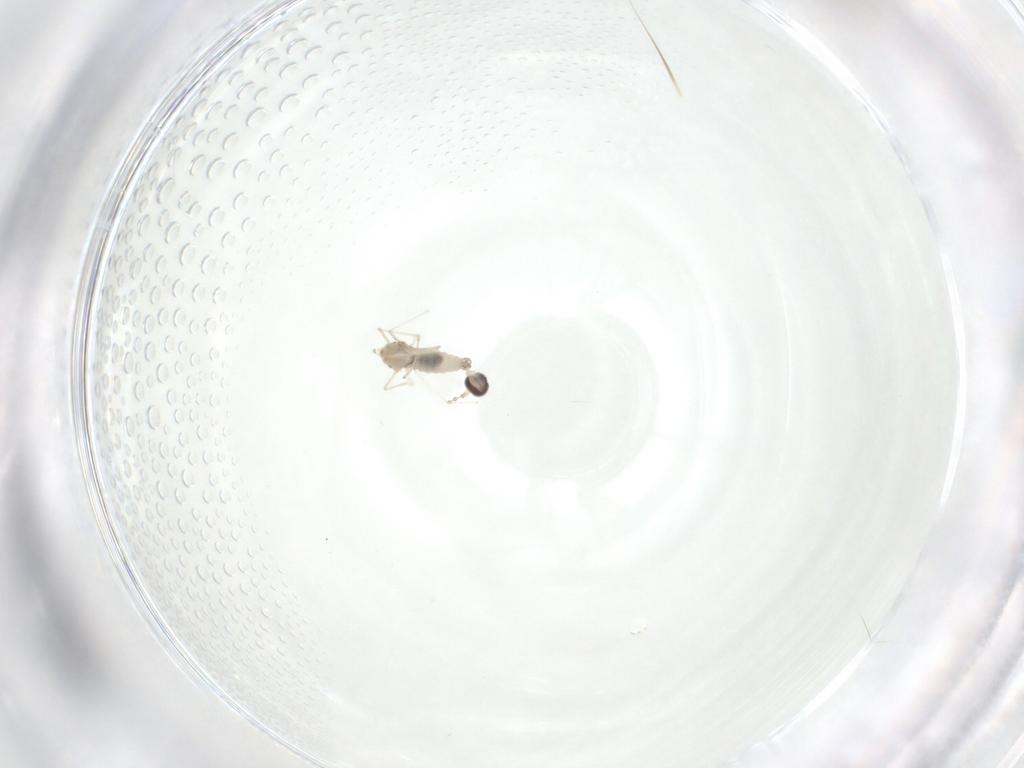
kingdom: Animalia
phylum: Arthropoda
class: Insecta
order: Diptera
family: Cecidomyiidae
